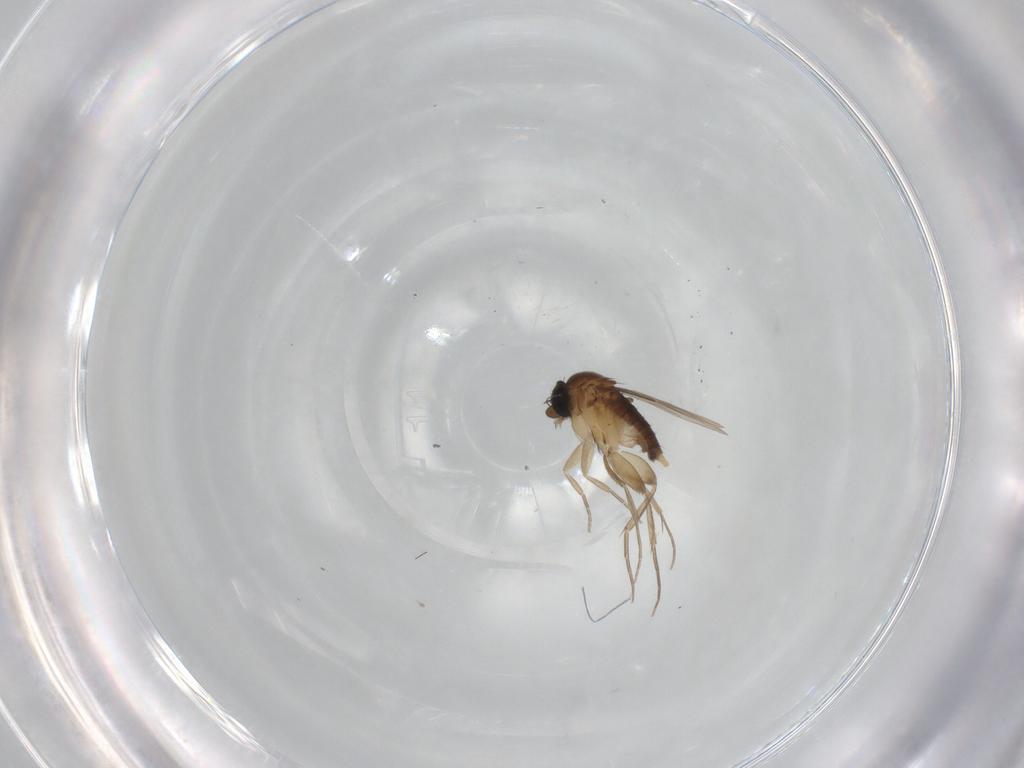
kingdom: Animalia
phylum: Arthropoda
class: Insecta
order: Diptera
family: Phoridae
